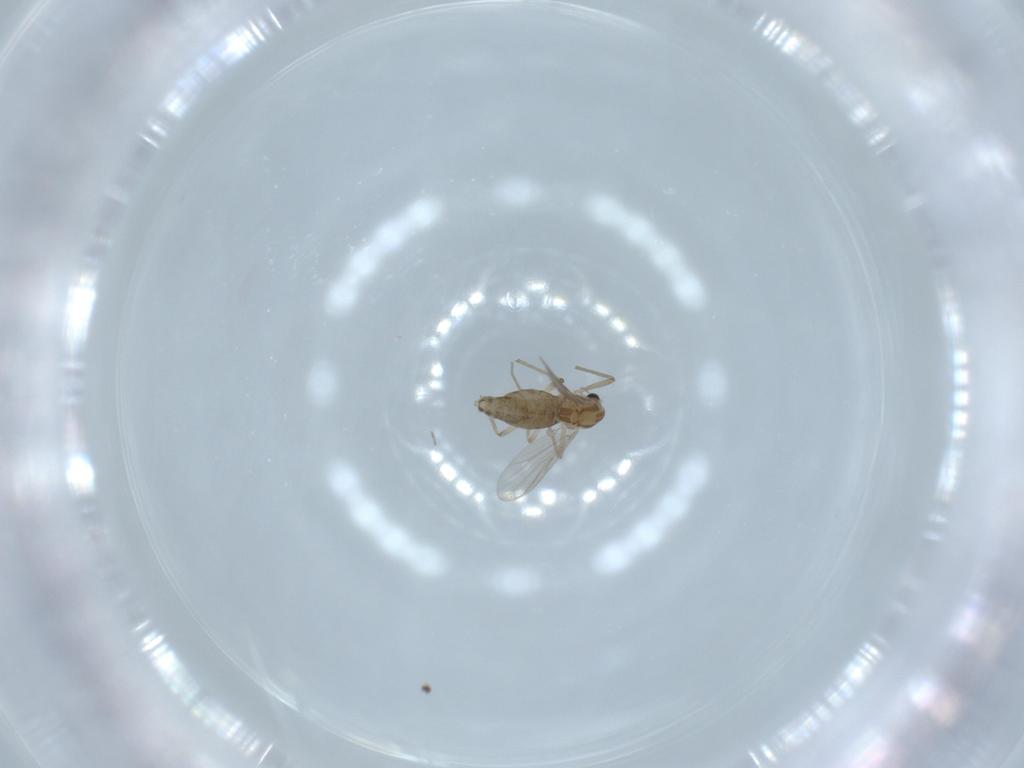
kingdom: Animalia
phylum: Arthropoda
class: Insecta
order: Diptera
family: Chironomidae
